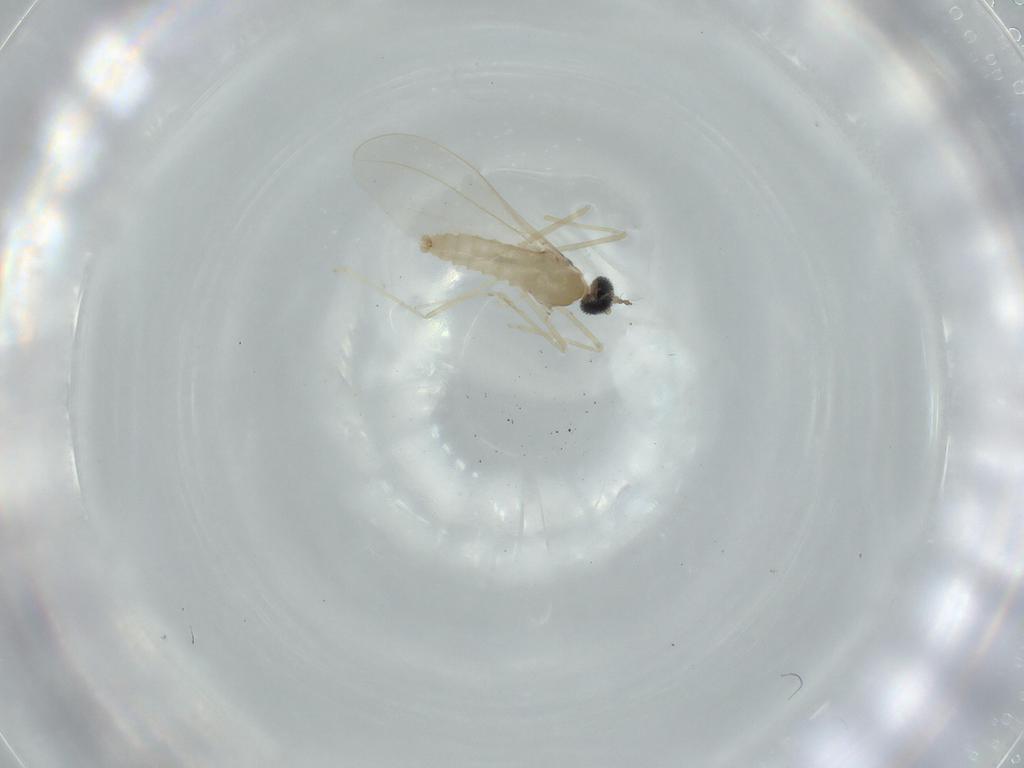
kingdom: Animalia
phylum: Arthropoda
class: Insecta
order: Diptera
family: Cecidomyiidae
